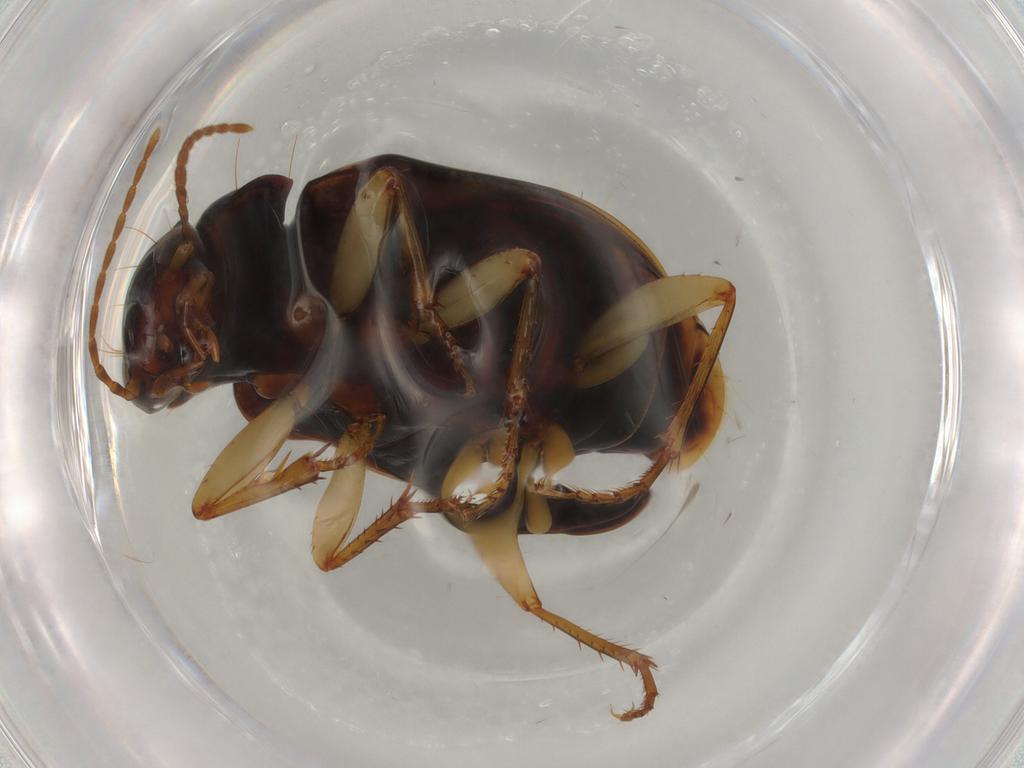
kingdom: Animalia
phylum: Arthropoda
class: Insecta
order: Coleoptera
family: Carabidae
